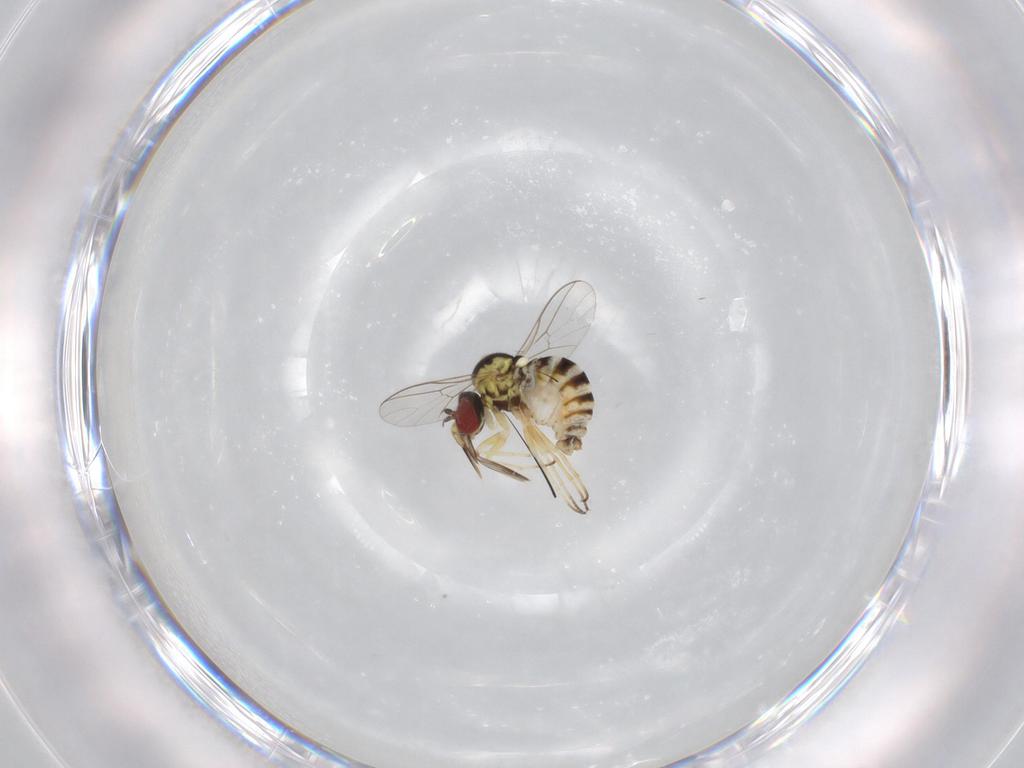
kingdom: Animalia
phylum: Arthropoda
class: Insecta
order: Diptera
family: Bombyliidae
